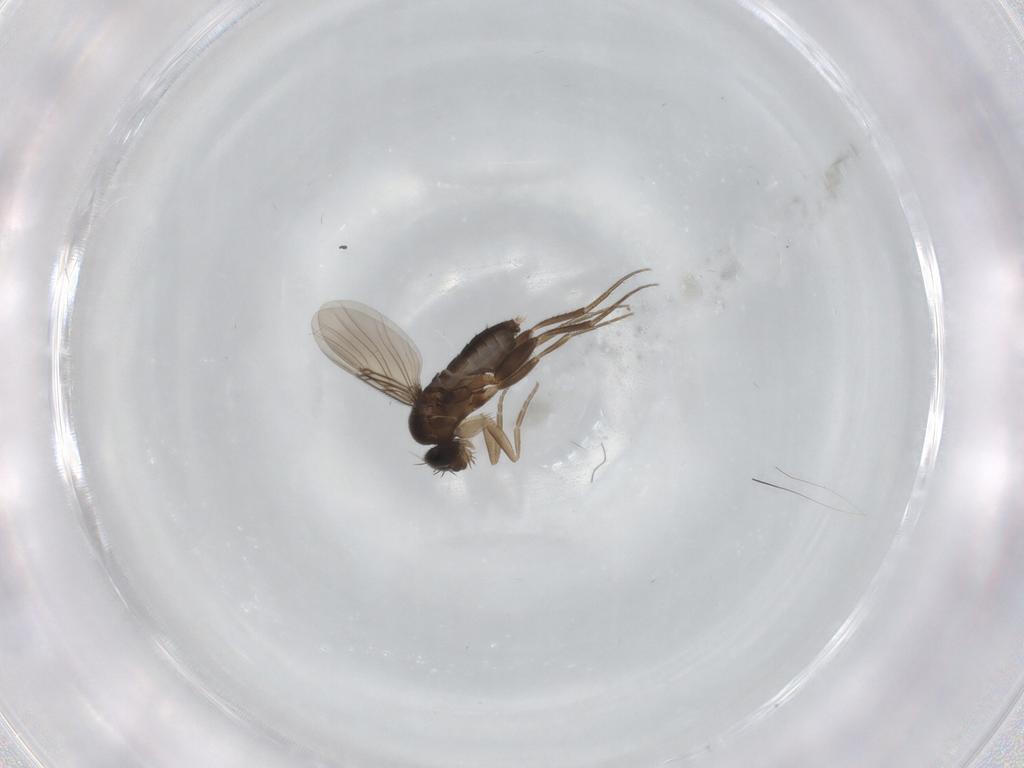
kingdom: Animalia
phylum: Arthropoda
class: Insecta
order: Diptera
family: Phoridae
